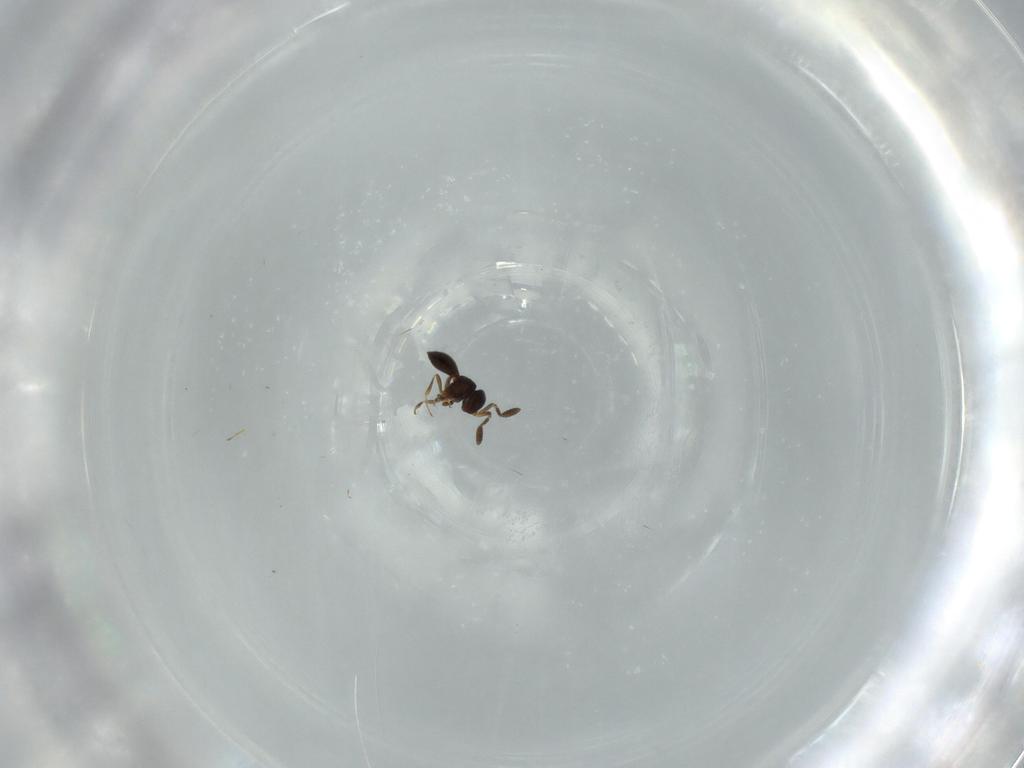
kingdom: Animalia
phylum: Arthropoda
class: Insecta
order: Hymenoptera
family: Scelionidae
